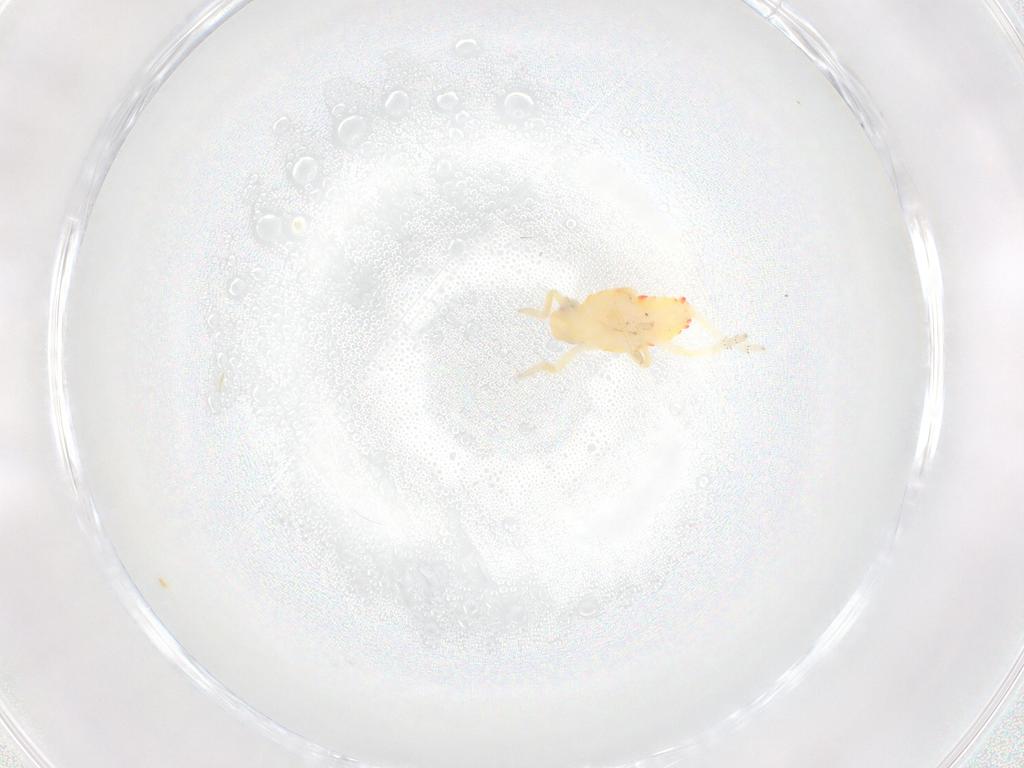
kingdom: Animalia
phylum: Arthropoda
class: Insecta
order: Hemiptera
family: Tropiduchidae
